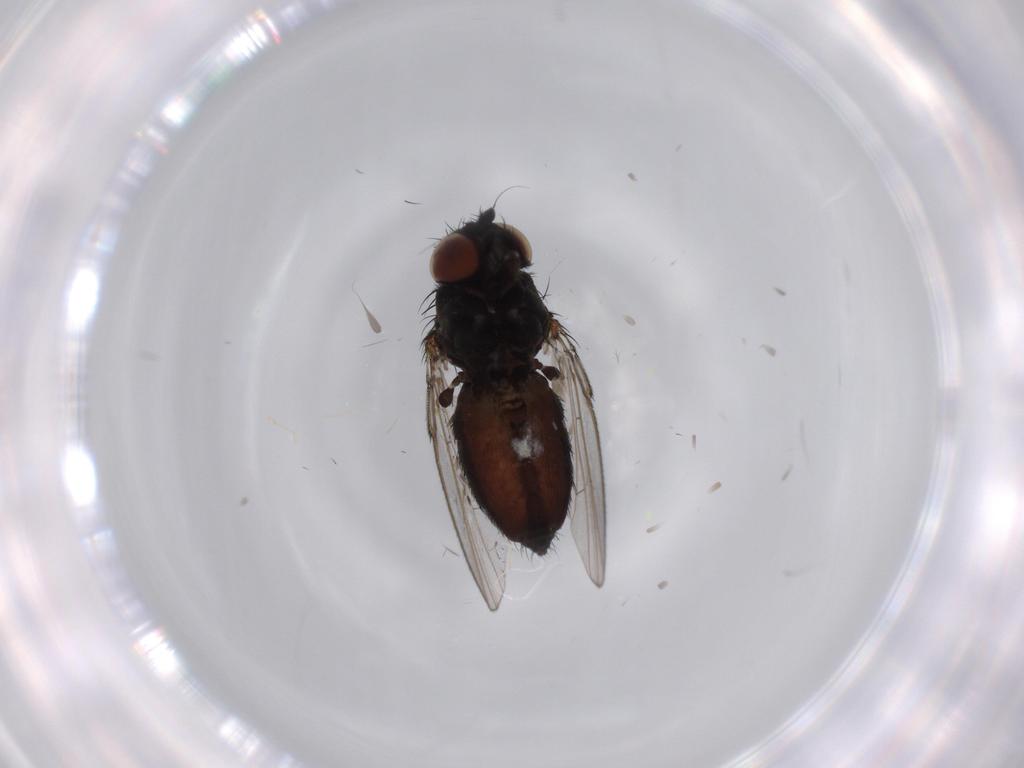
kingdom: Animalia
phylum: Arthropoda
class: Insecta
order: Diptera
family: Milichiidae
